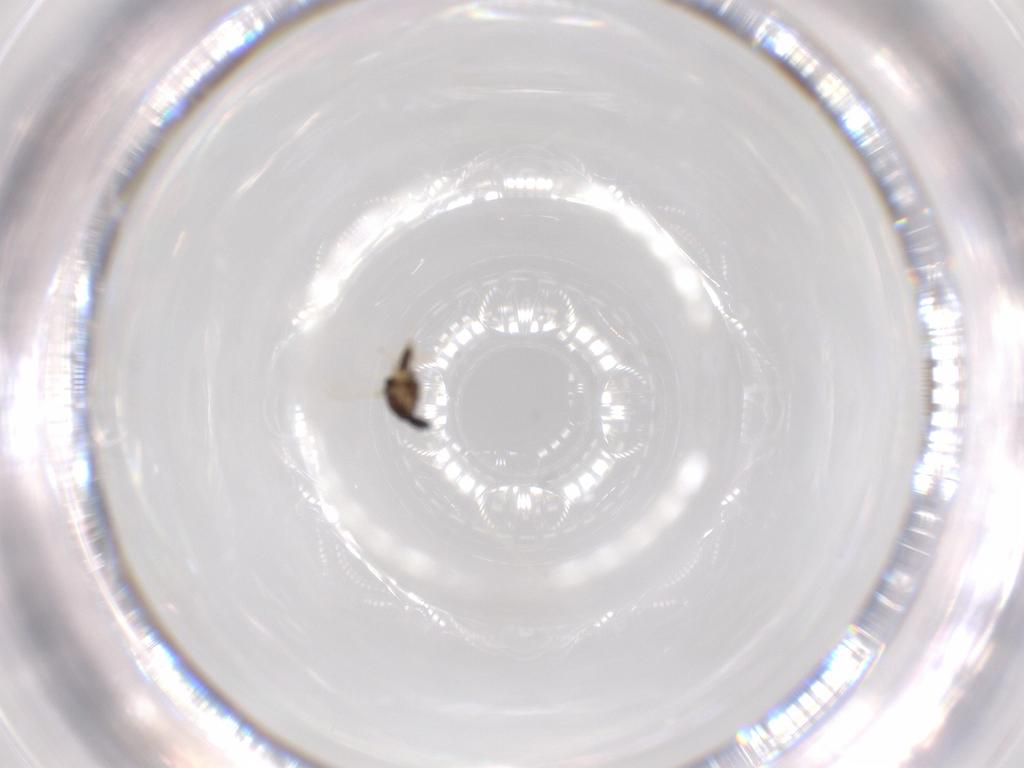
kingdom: Animalia
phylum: Arthropoda
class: Insecta
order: Diptera
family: Chironomidae
